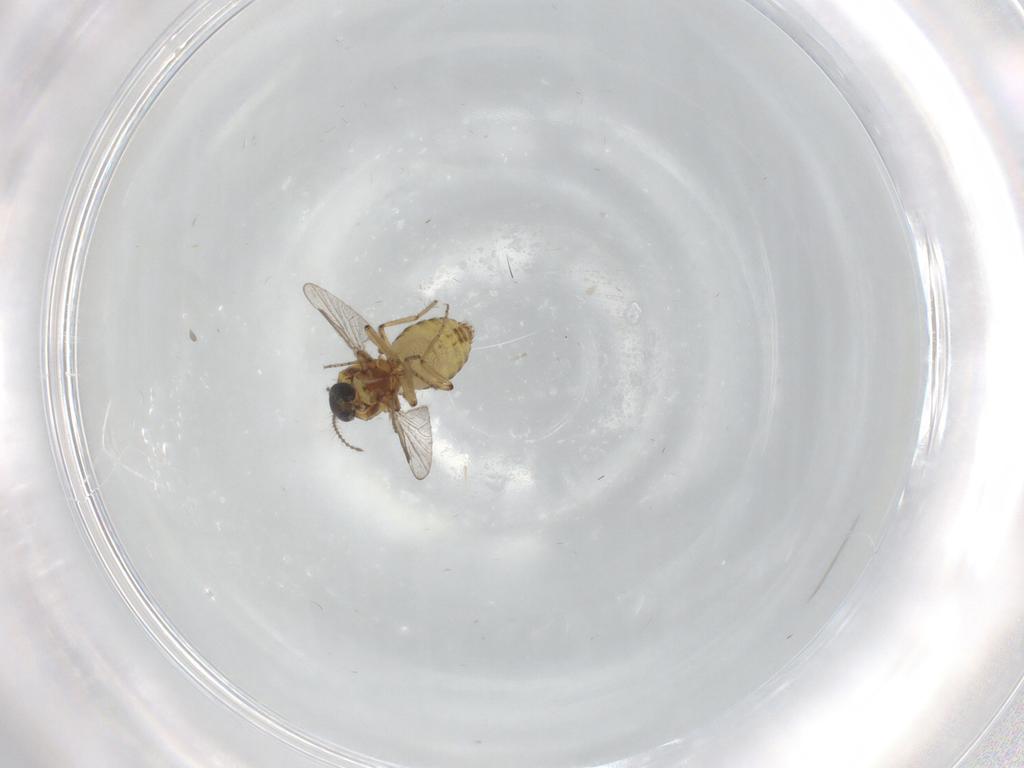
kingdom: Animalia
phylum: Arthropoda
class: Insecta
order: Diptera
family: Ceratopogonidae
